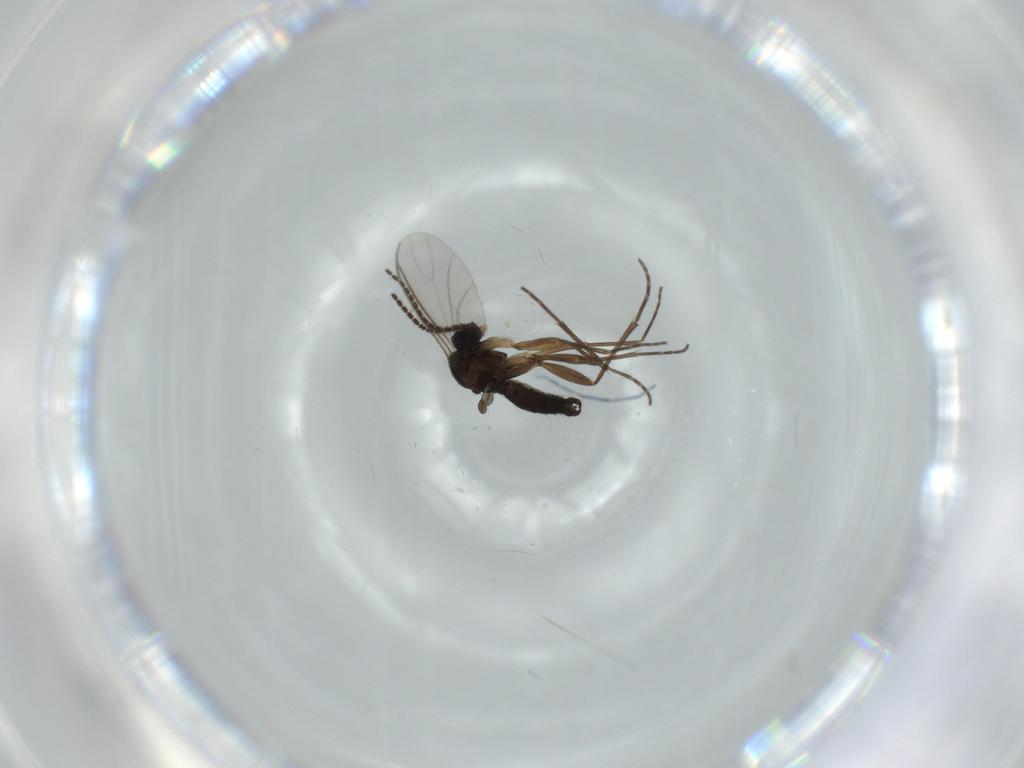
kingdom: Animalia
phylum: Arthropoda
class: Insecta
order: Diptera
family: Sciaridae
